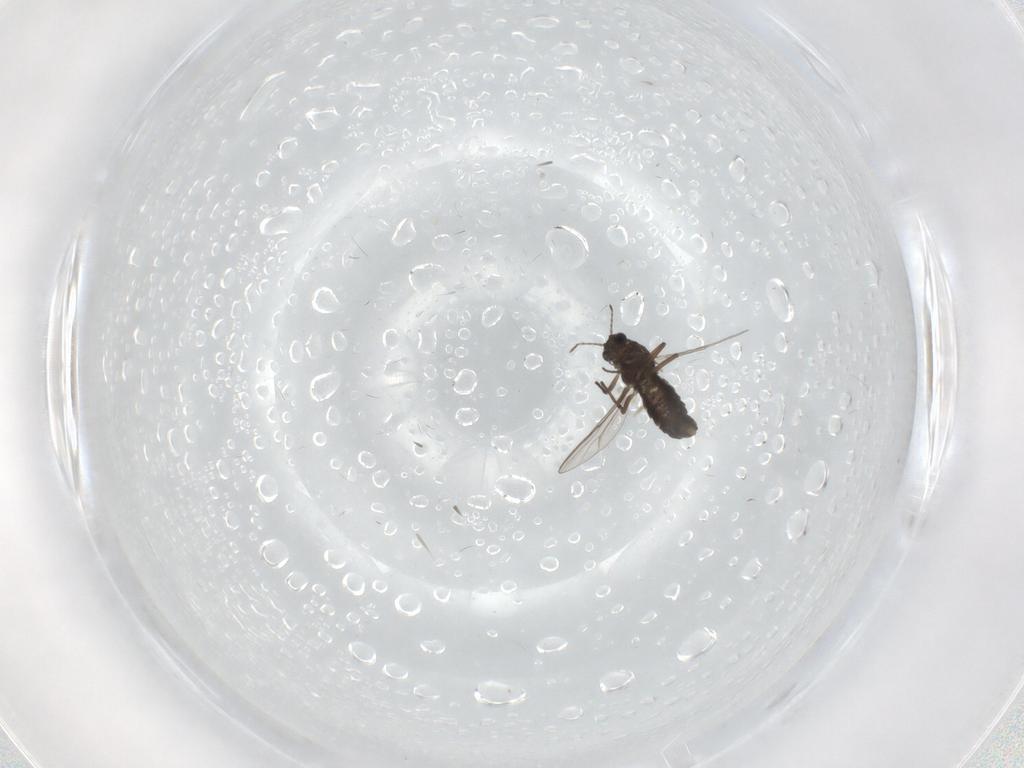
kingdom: Animalia
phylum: Arthropoda
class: Insecta
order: Diptera
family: Chironomidae
